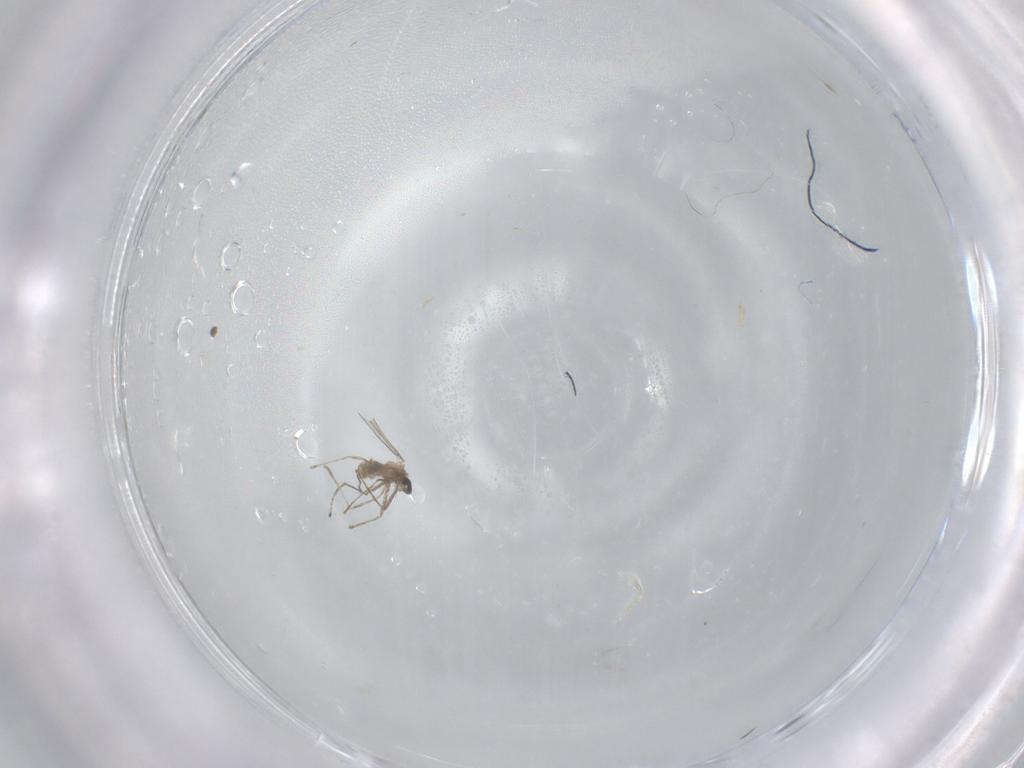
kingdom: Animalia
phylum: Arthropoda
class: Insecta
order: Diptera
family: Cecidomyiidae
